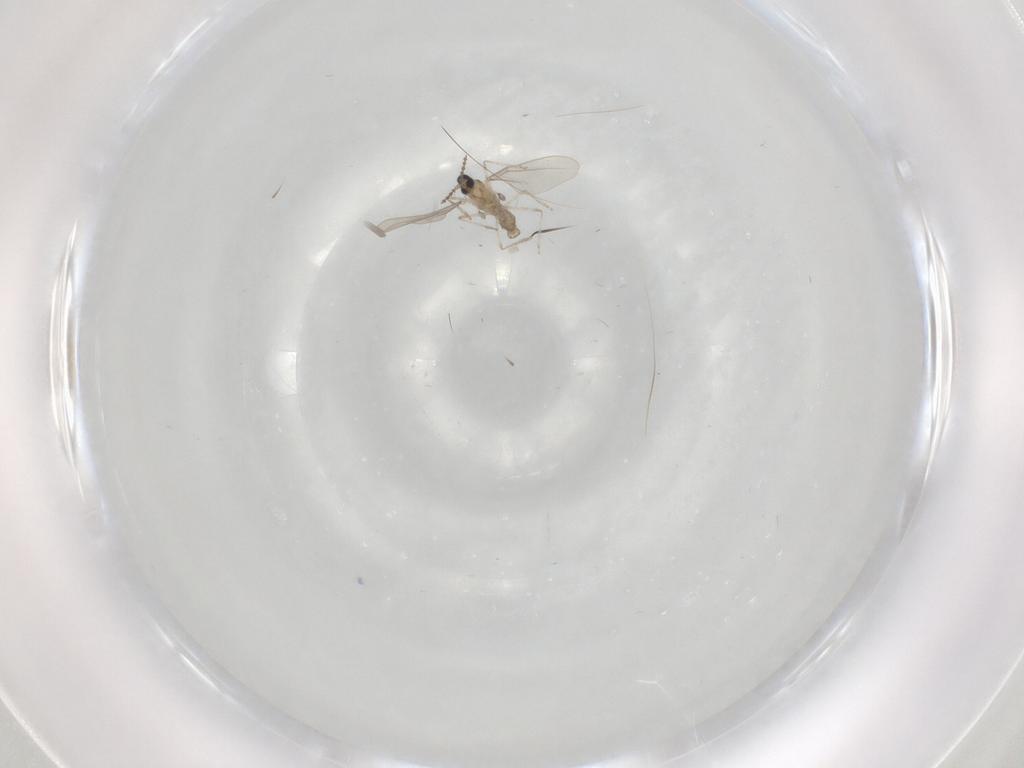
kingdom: Animalia
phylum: Arthropoda
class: Insecta
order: Diptera
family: Cecidomyiidae
